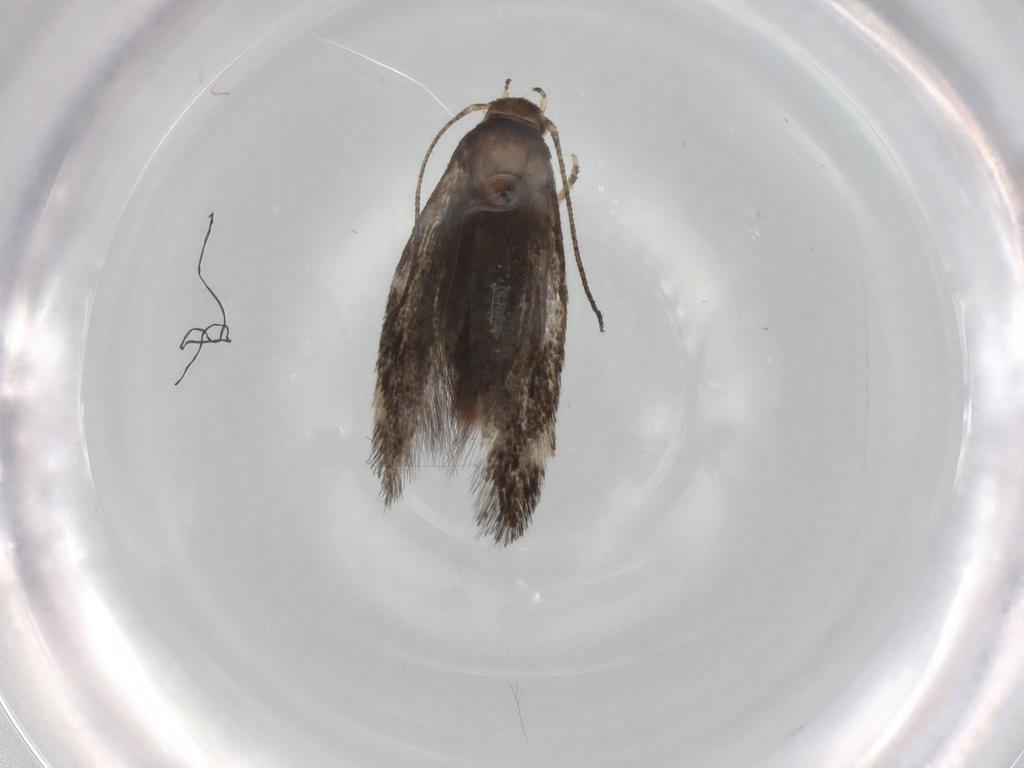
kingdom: Animalia
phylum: Arthropoda
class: Insecta
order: Lepidoptera
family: Elachistidae
